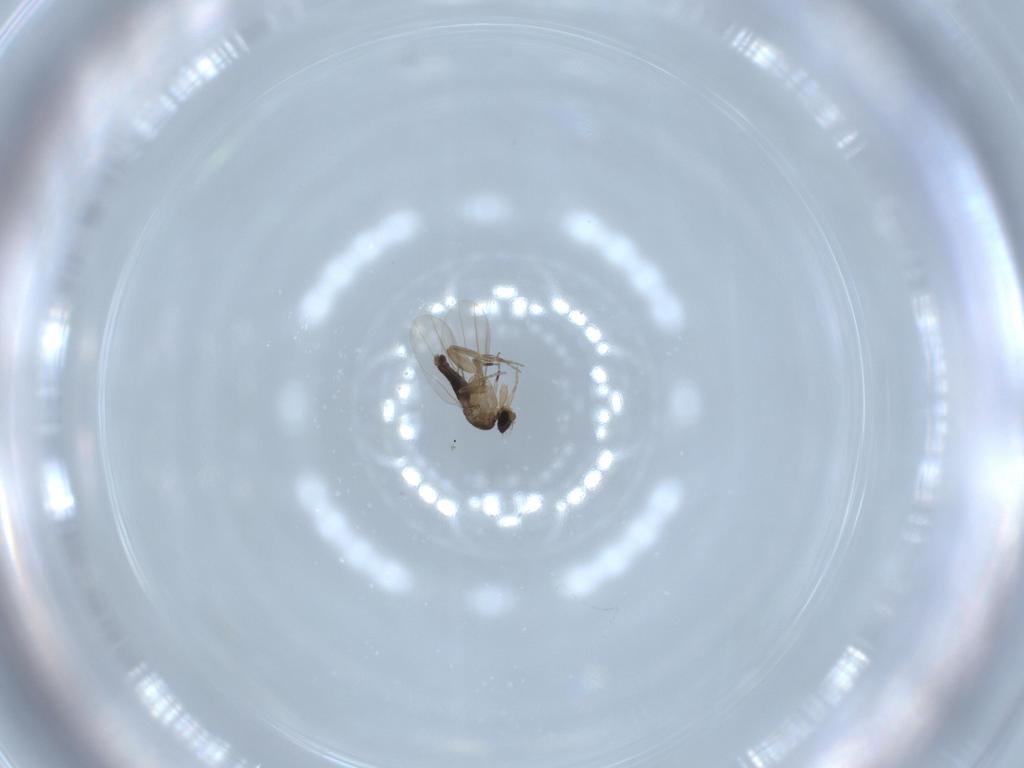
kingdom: Animalia
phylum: Arthropoda
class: Insecta
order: Diptera
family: Phoridae
